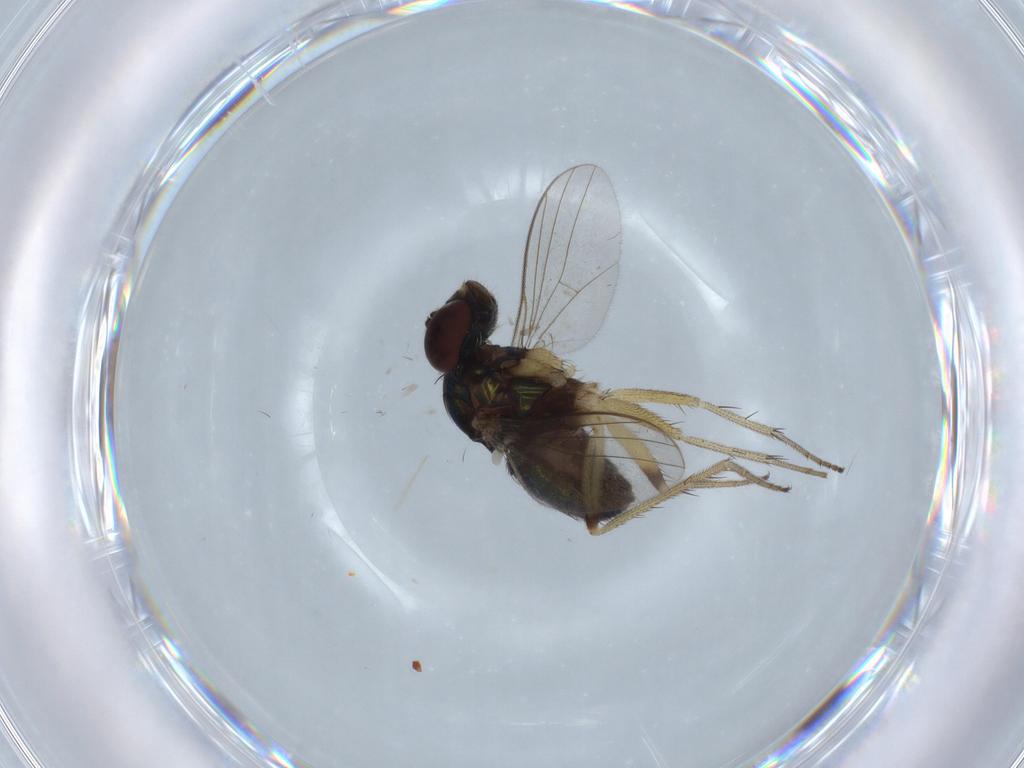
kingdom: Animalia
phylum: Arthropoda
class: Insecta
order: Diptera
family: Dolichopodidae
